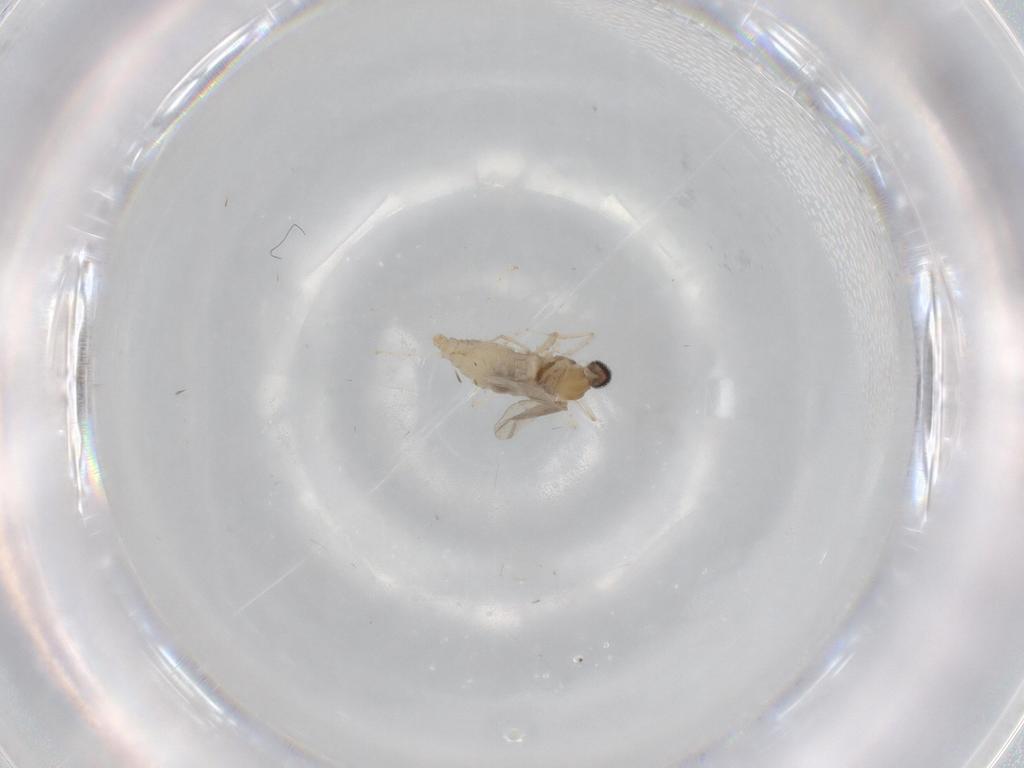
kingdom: Animalia
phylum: Arthropoda
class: Insecta
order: Diptera
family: Cecidomyiidae
